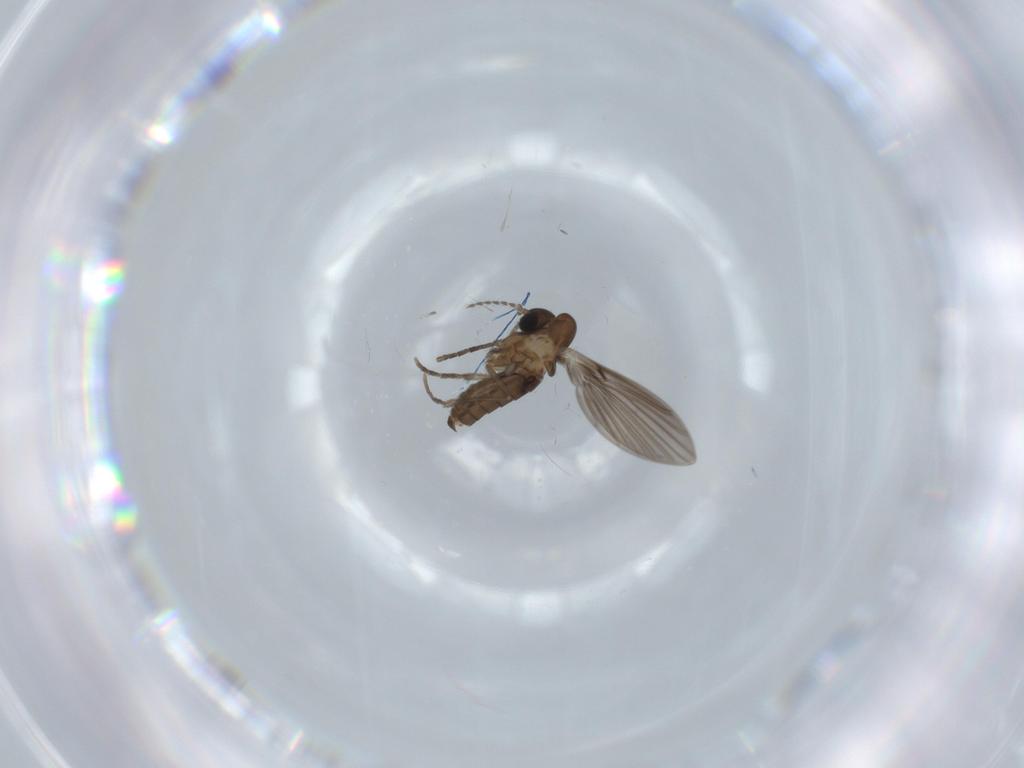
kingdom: Animalia
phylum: Arthropoda
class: Insecta
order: Diptera
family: Psychodidae
